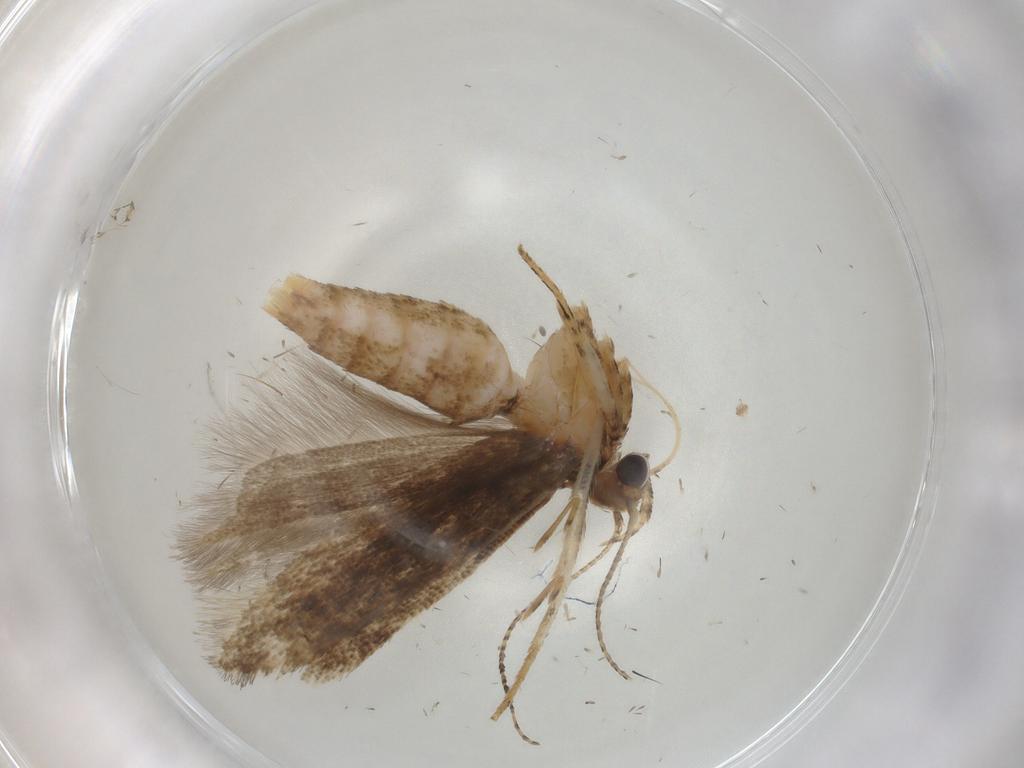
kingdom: Animalia
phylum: Arthropoda
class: Insecta
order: Lepidoptera
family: Gelechiidae
